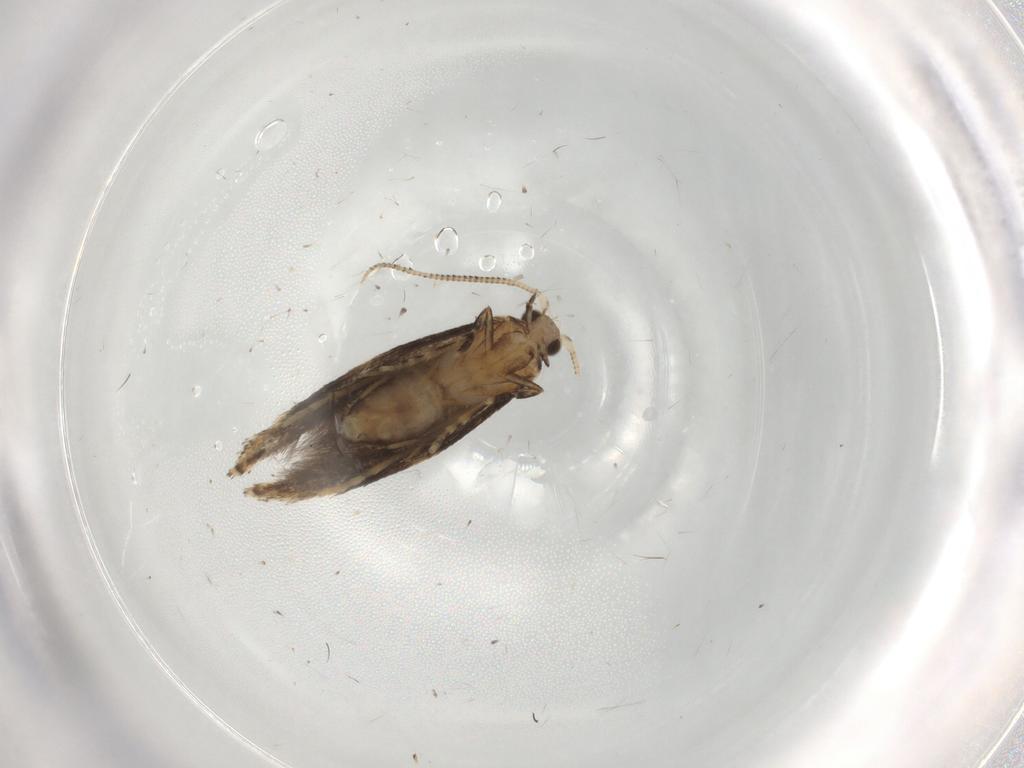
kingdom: Animalia
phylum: Arthropoda
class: Insecta
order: Lepidoptera
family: Tineidae
